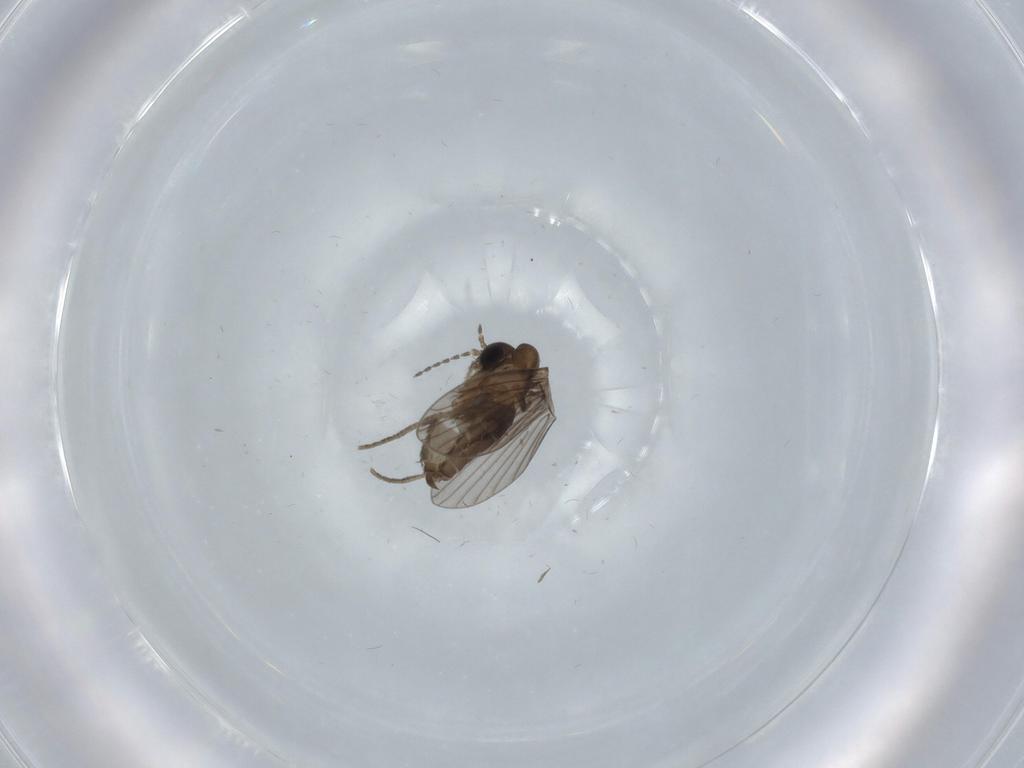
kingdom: Animalia
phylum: Arthropoda
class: Insecta
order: Diptera
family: Psychodidae
